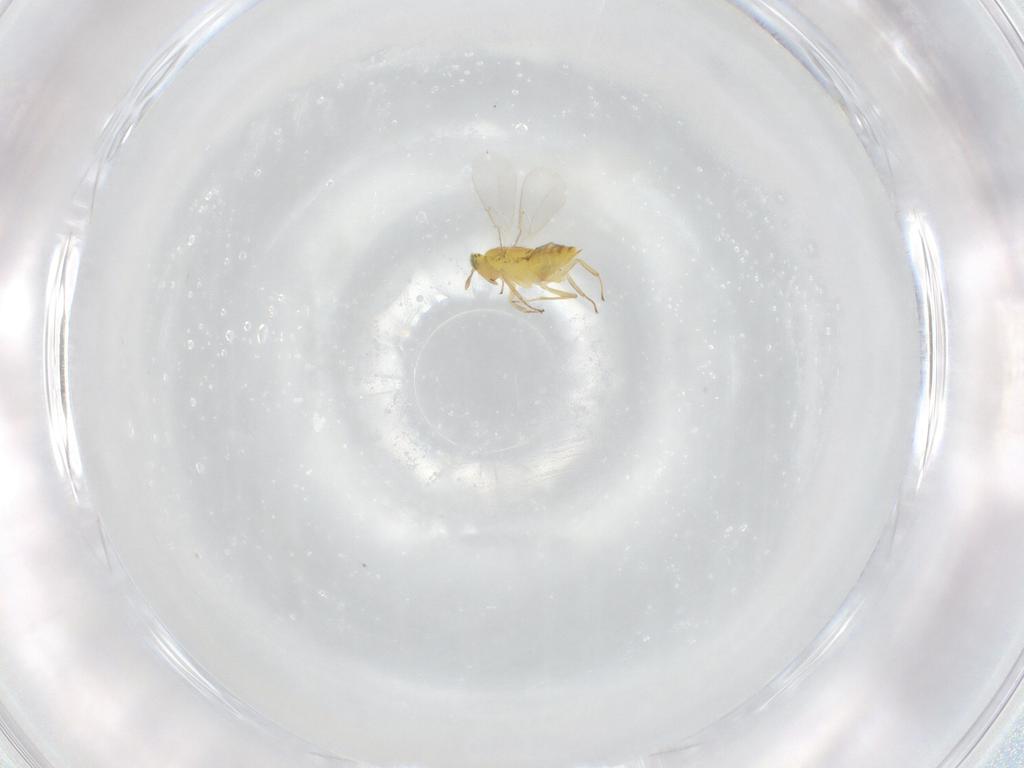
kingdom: Animalia
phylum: Arthropoda
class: Insecta
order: Hymenoptera
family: Aphelinidae
